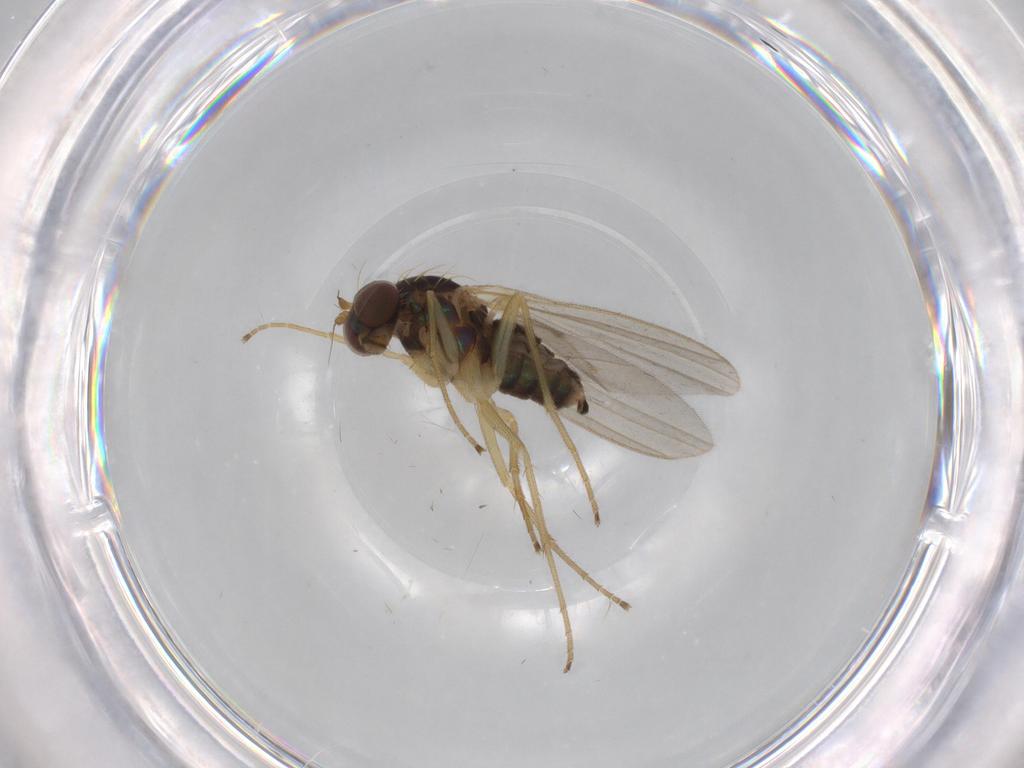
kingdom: Animalia
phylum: Arthropoda
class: Insecta
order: Diptera
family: Dolichopodidae
